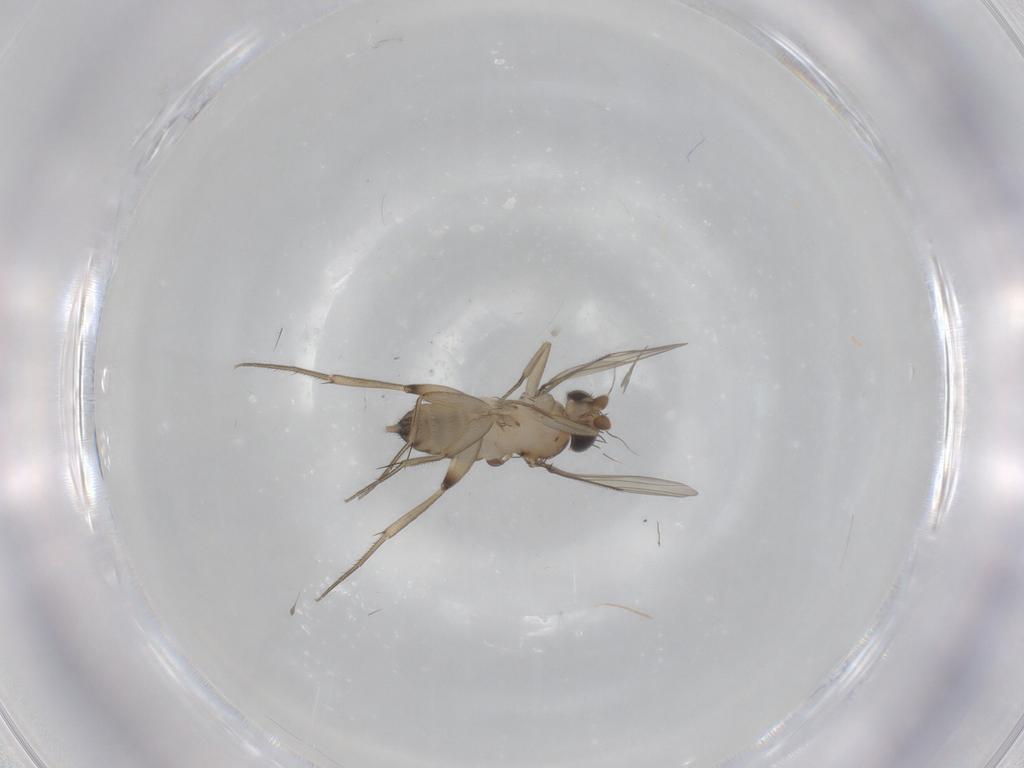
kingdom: Animalia
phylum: Arthropoda
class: Insecta
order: Diptera
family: Phoridae
